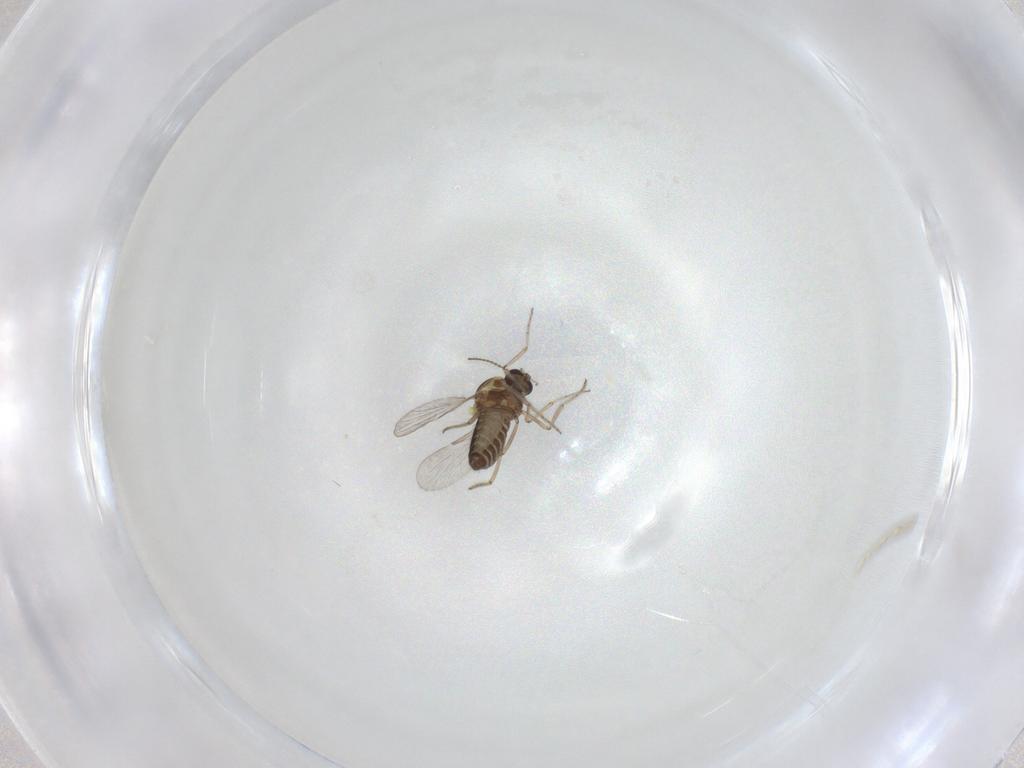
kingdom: Animalia
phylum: Arthropoda
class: Insecta
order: Diptera
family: Ceratopogonidae
